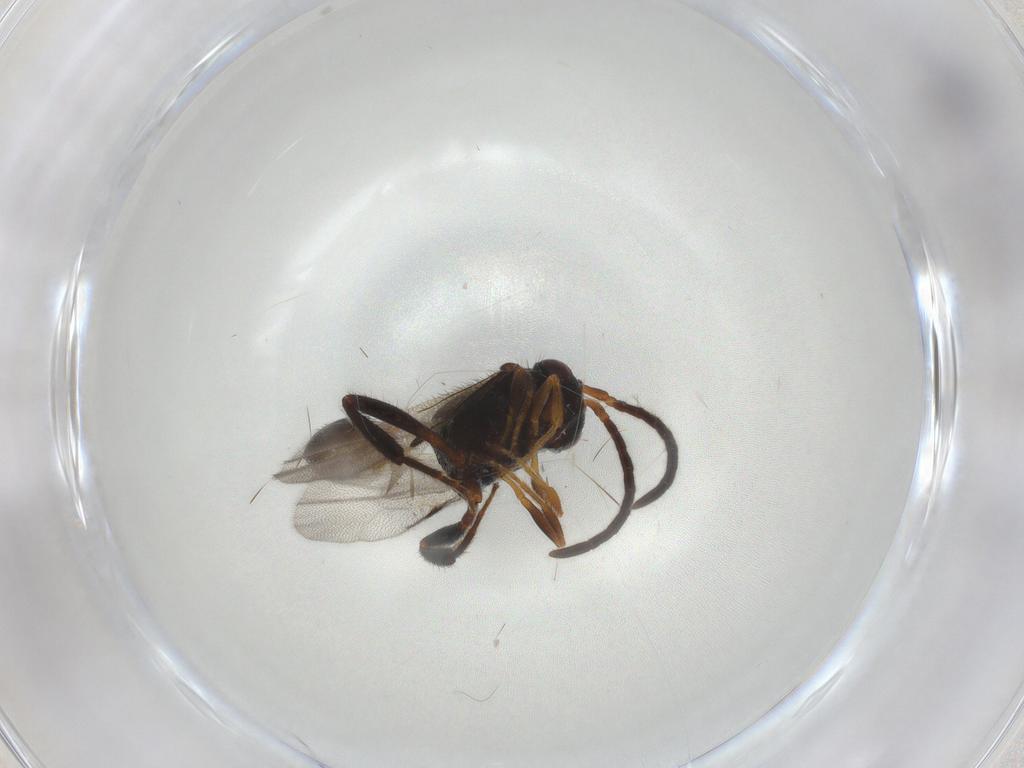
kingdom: Animalia
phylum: Arthropoda
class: Insecta
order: Hymenoptera
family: Evaniidae
